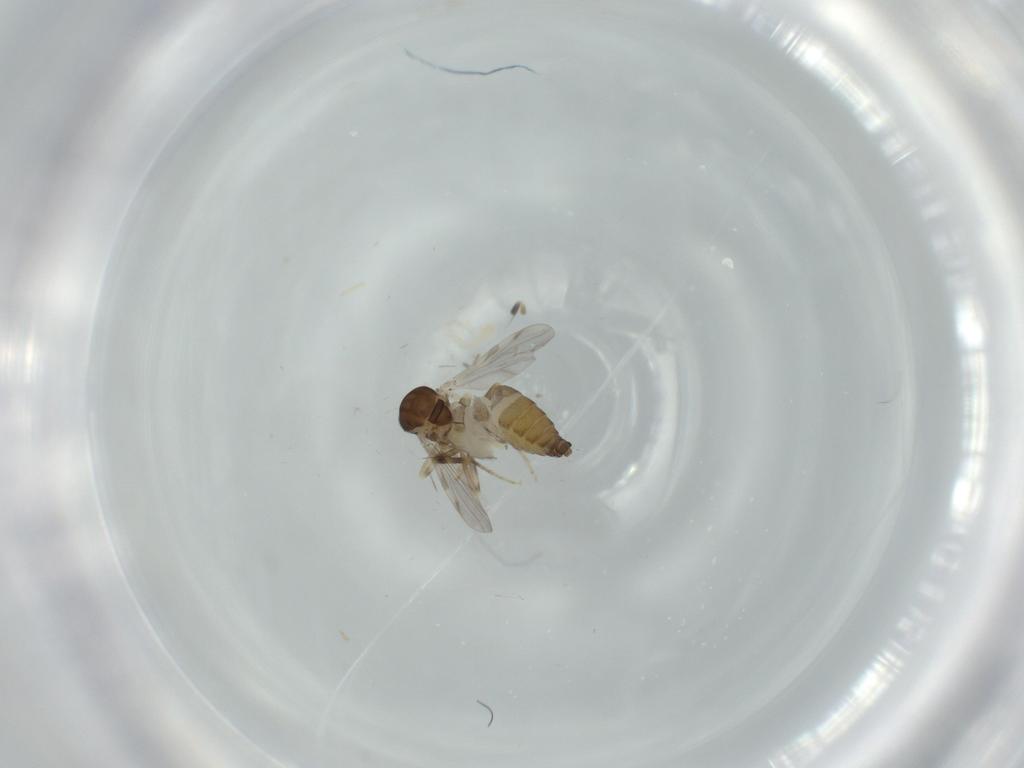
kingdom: Animalia
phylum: Arthropoda
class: Insecta
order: Diptera
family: Ceratopogonidae
